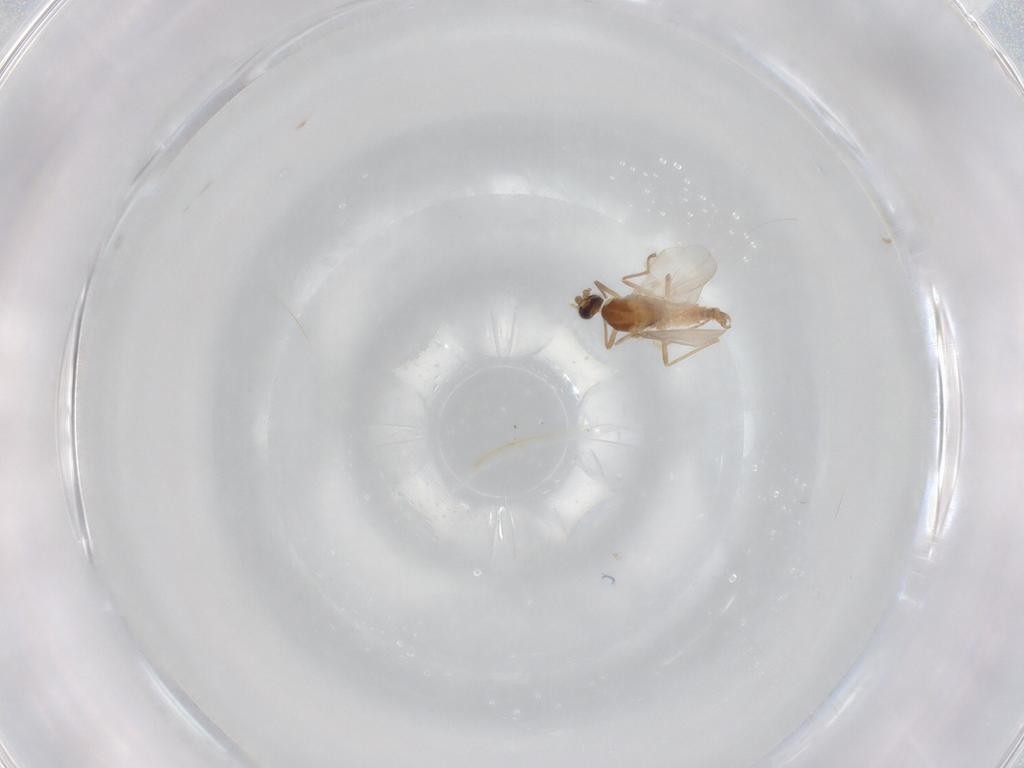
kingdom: Animalia
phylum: Arthropoda
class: Insecta
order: Diptera
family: Cecidomyiidae
